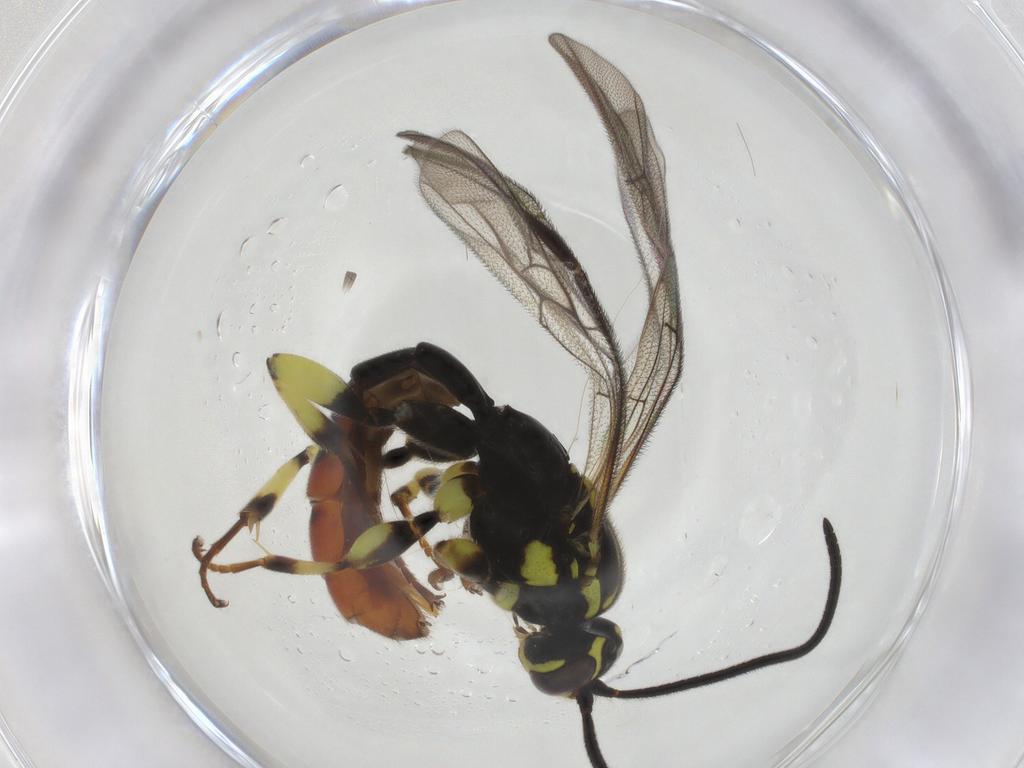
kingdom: Animalia
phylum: Arthropoda
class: Insecta
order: Hymenoptera
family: Ichneumonidae
